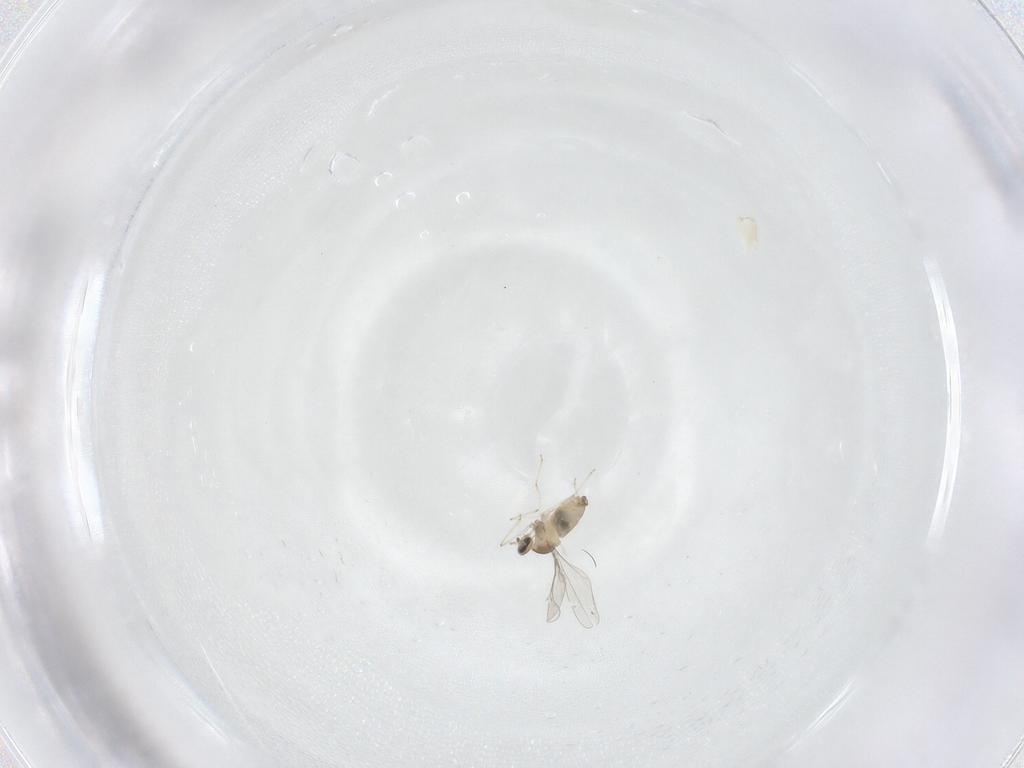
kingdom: Animalia
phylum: Arthropoda
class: Insecta
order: Diptera
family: Cecidomyiidae
